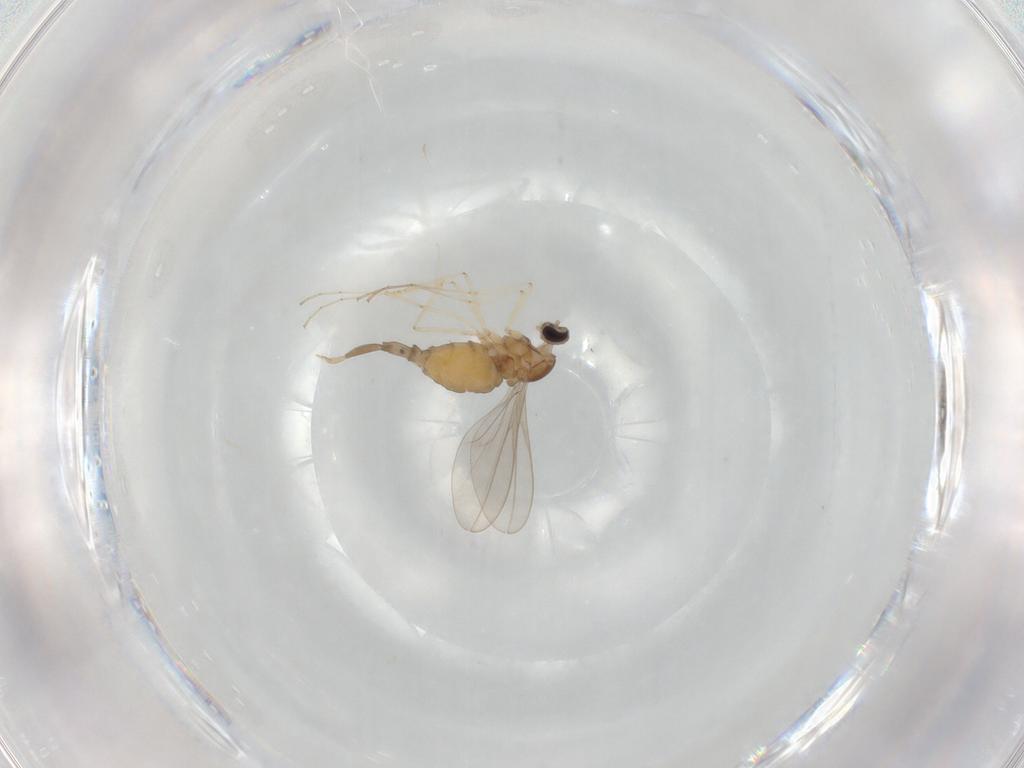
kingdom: Animalia
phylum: Arthropoda
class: Insecta
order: Diptera
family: Cecidomyiidae
